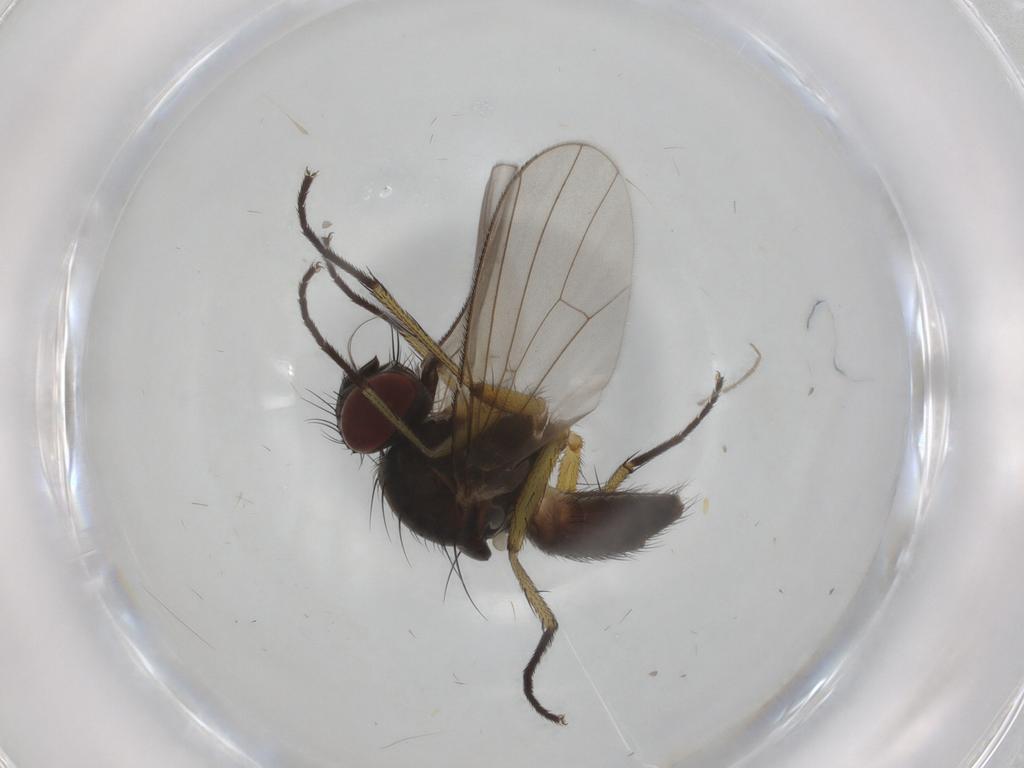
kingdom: Animalia
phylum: Arthropoda
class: Insecta
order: Diptera
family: Muscidae
